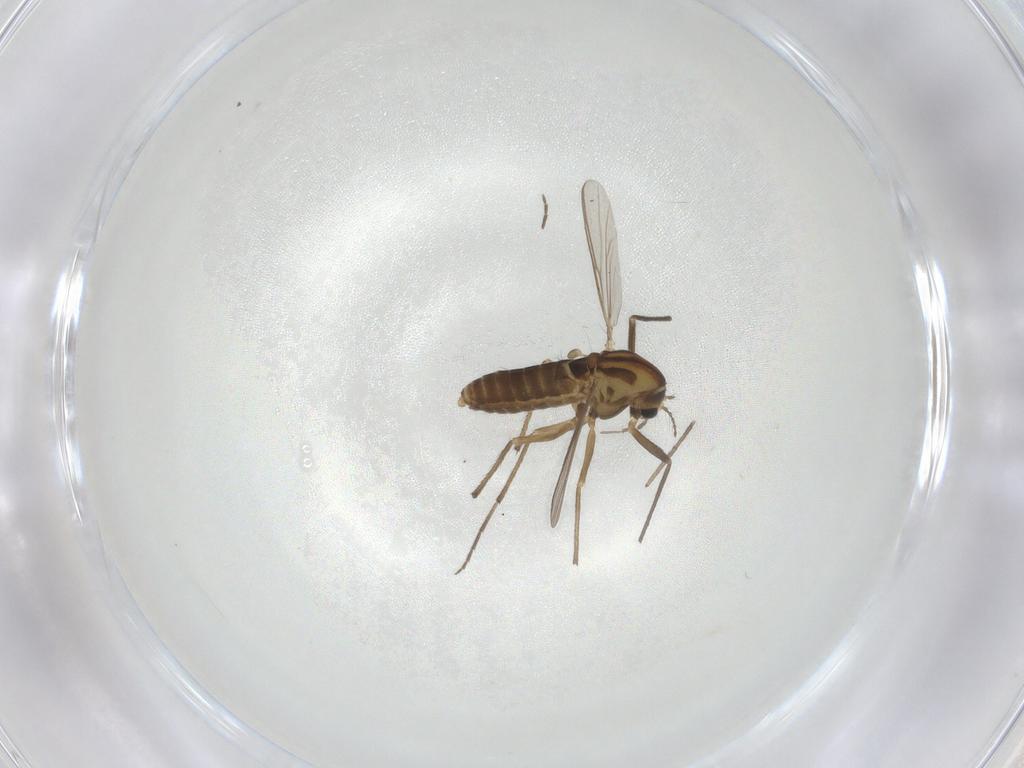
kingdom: Animalia
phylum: Arthropoda
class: Insecta
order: Diptera
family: Chironomidae
